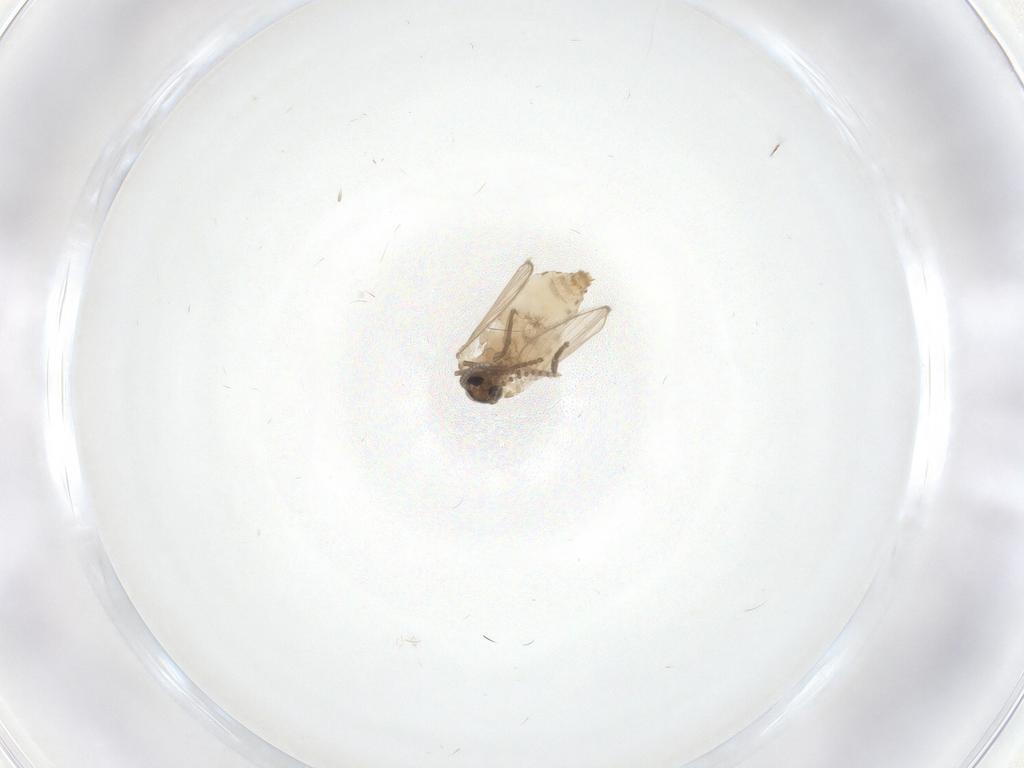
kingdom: Animalia
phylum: Arthropoda
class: Insecta
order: Diptera
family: Psychodidae
